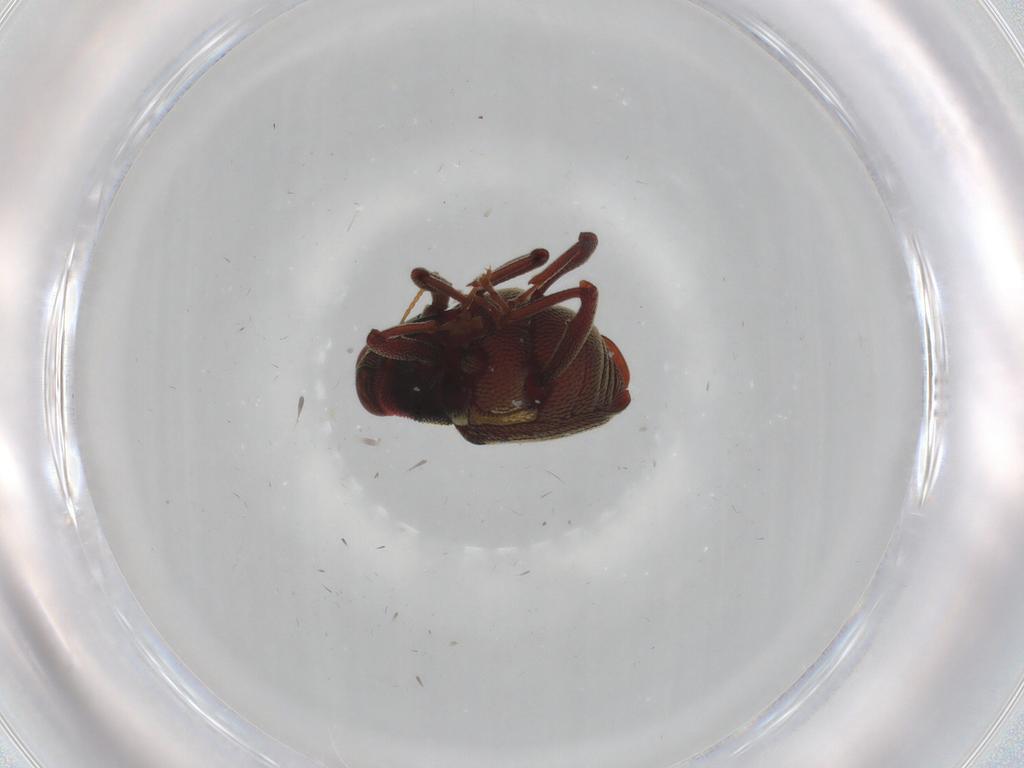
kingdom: Animalia
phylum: Arthropoda
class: Insecta
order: Coleoptera
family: Curculionidae
